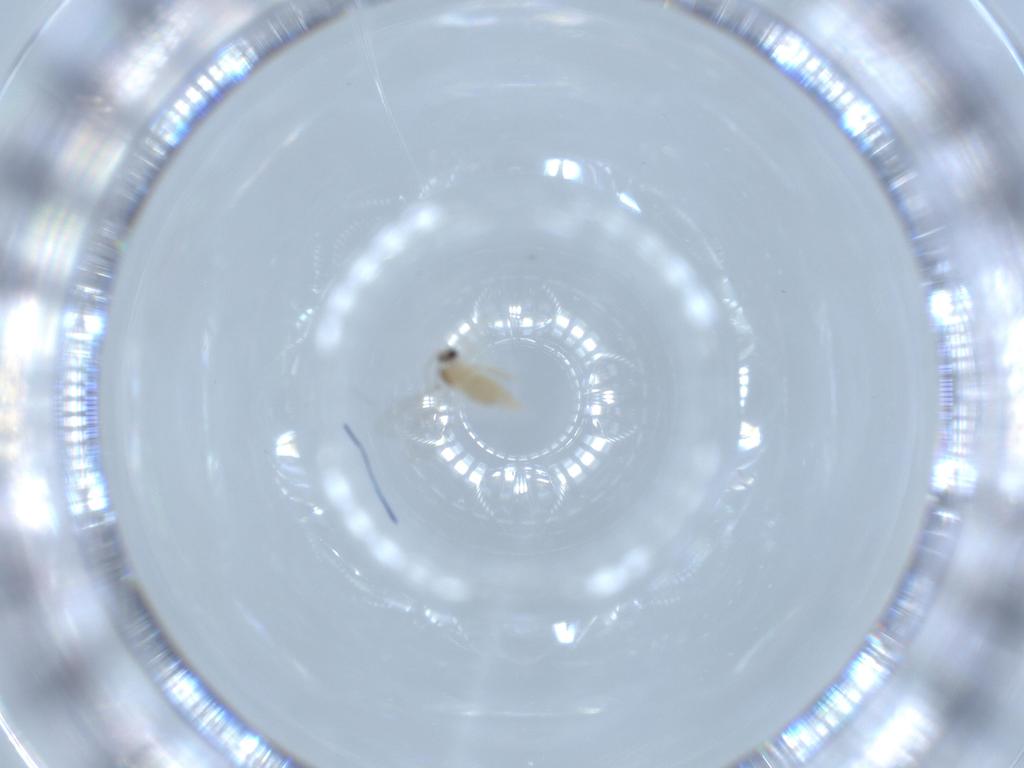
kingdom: Animalia
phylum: Arthropoda
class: Insecta
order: Diptera
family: Cecidomyiidae
